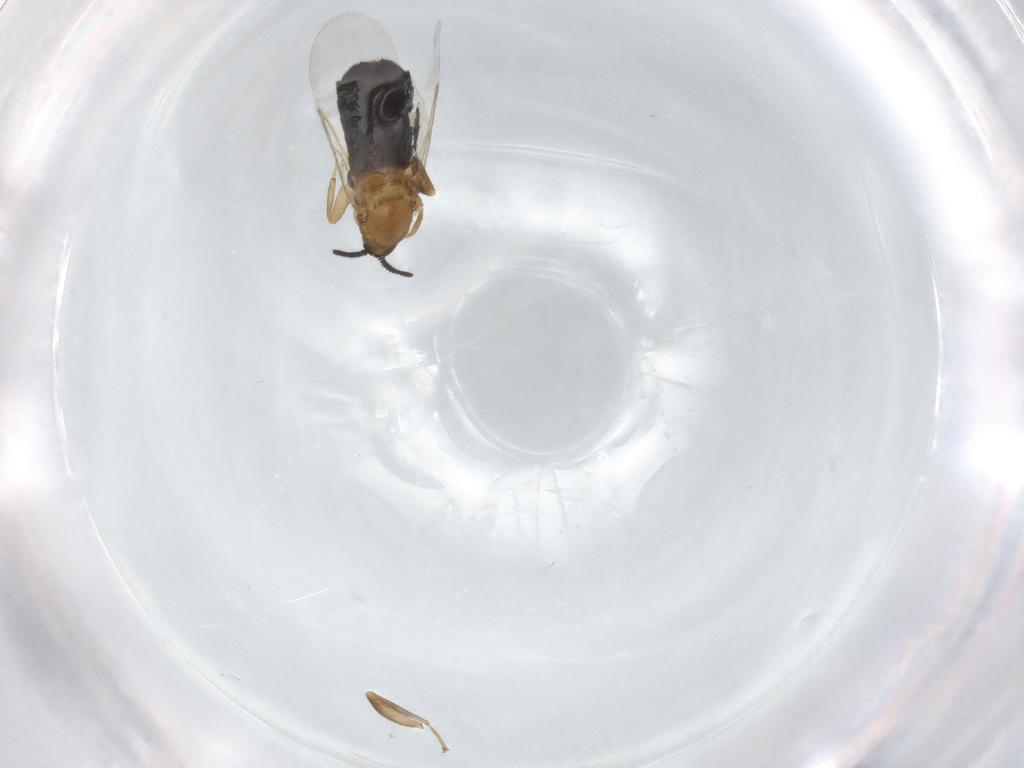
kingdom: Animalia
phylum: Arthropoda
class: Insecta
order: Diptera
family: Scatopsidae
